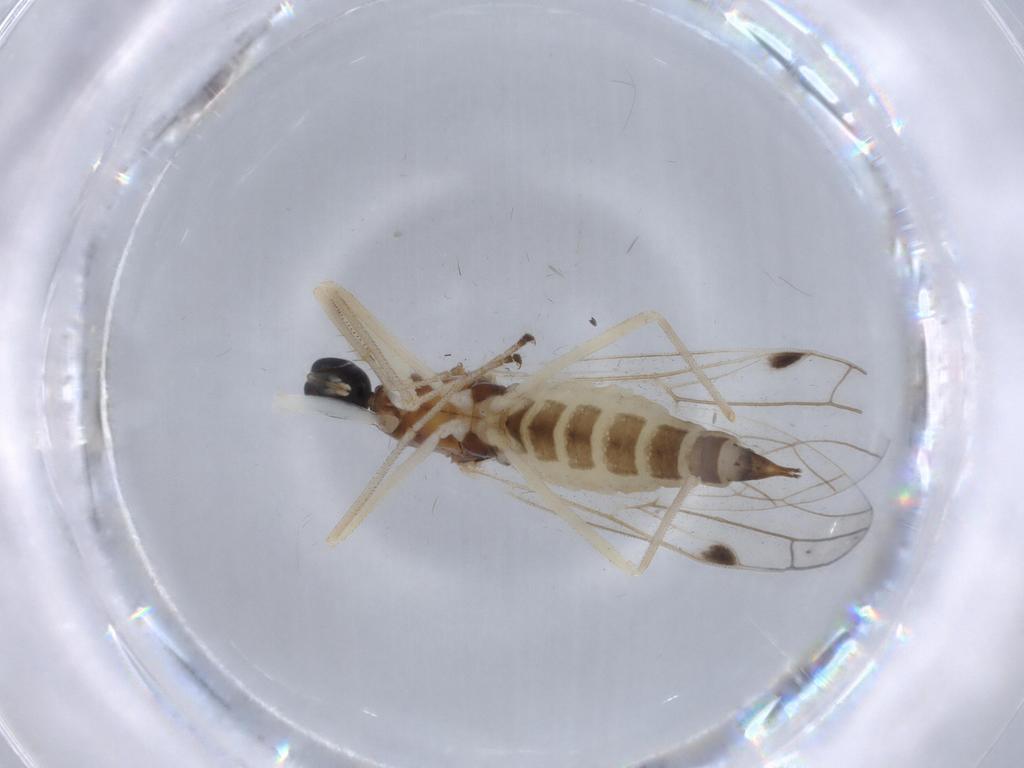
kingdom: Animalia
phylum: Arthropoda
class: Insecta
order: Diptera
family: Empididae
